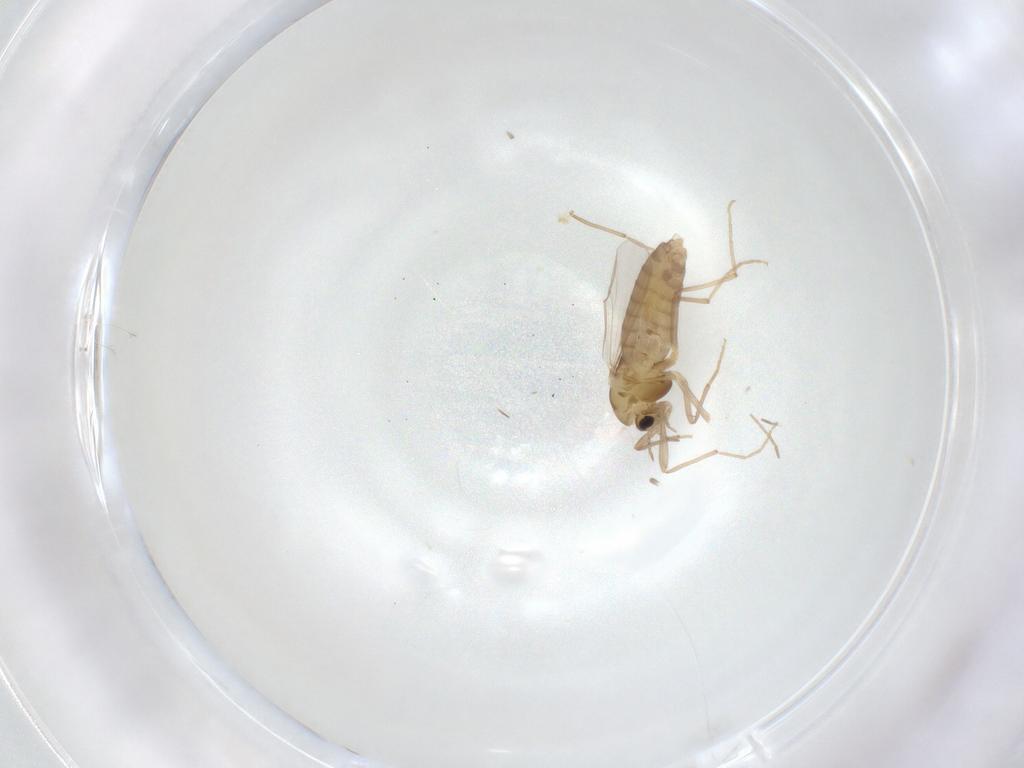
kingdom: Animalia
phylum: Arthropoda
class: Insecta
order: Diptera
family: Chironomidae
